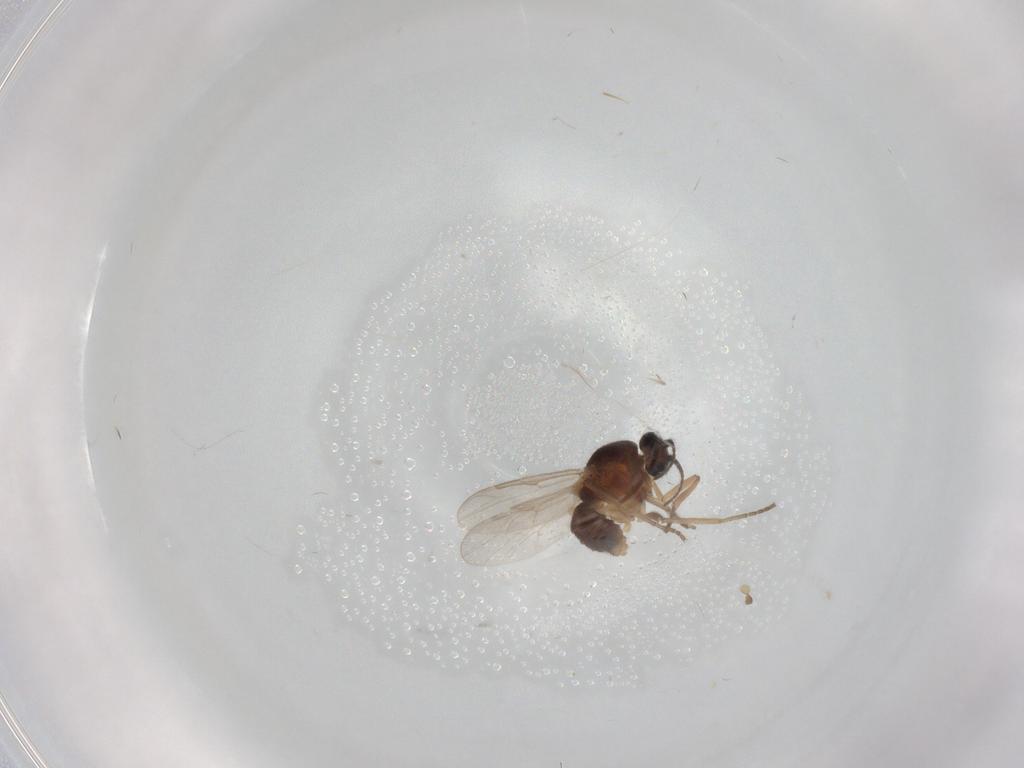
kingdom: Animalia
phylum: Arthropoda
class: Insecta
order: Diptera
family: Ceratopogonidae
